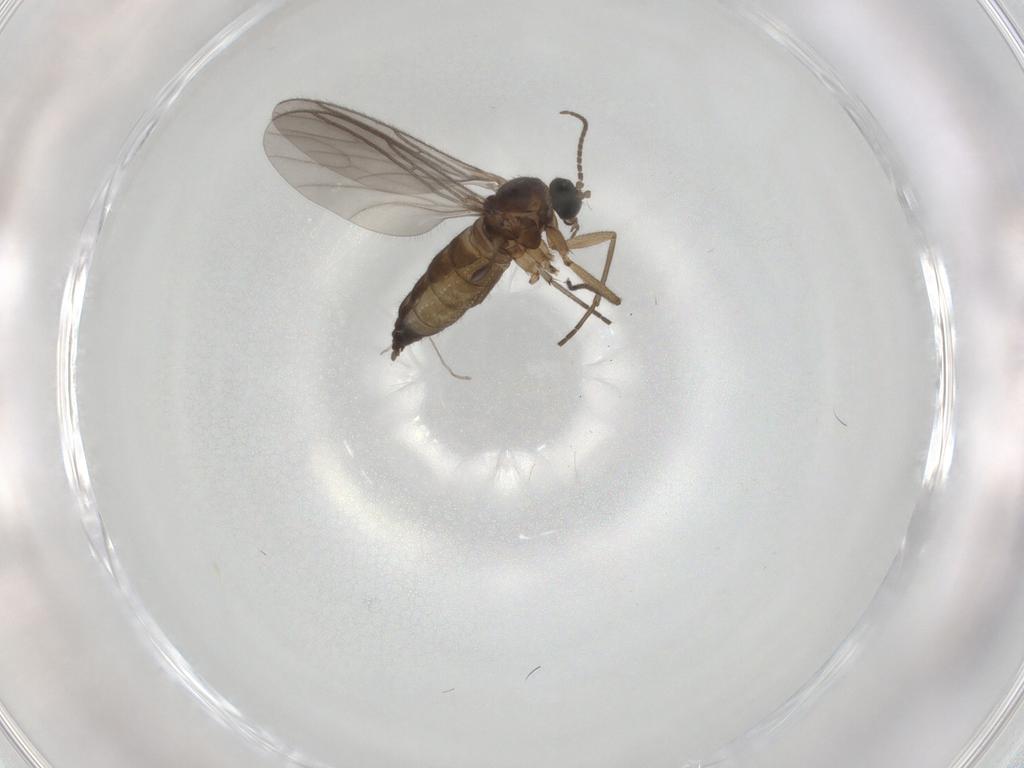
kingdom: Animalia
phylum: Arthropoda
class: Insecta
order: Diptera
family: Sciaridae
